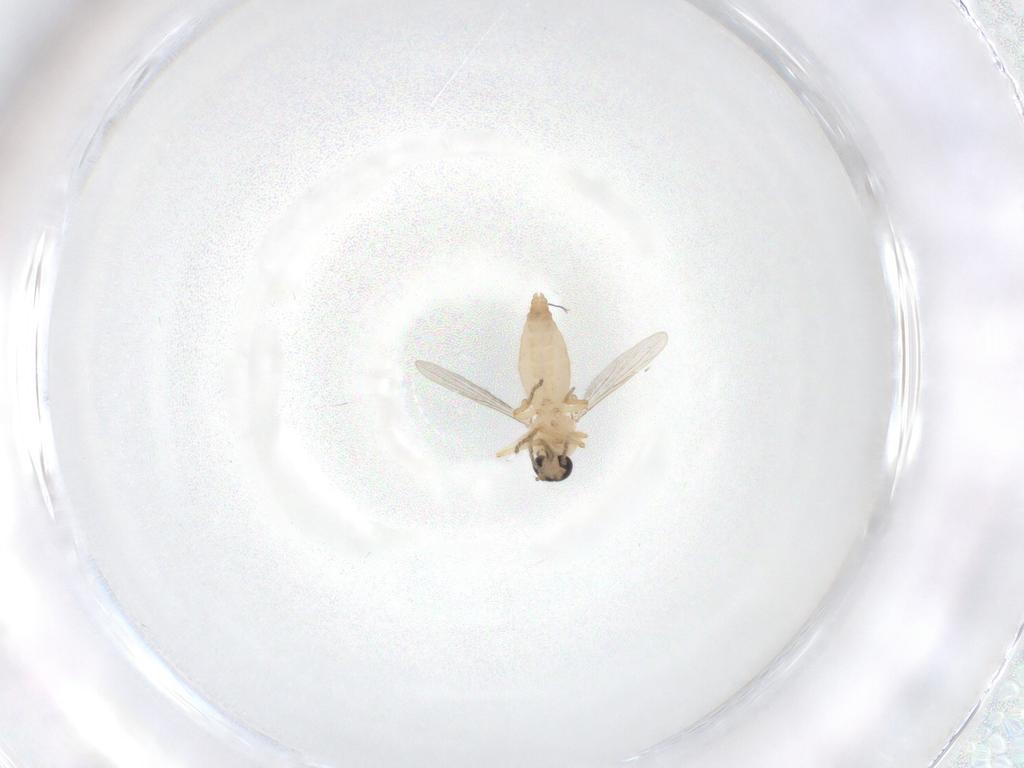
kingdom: Animalia
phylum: Arthropoda
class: Insecta
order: Diptera
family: Ceratopogonidae
